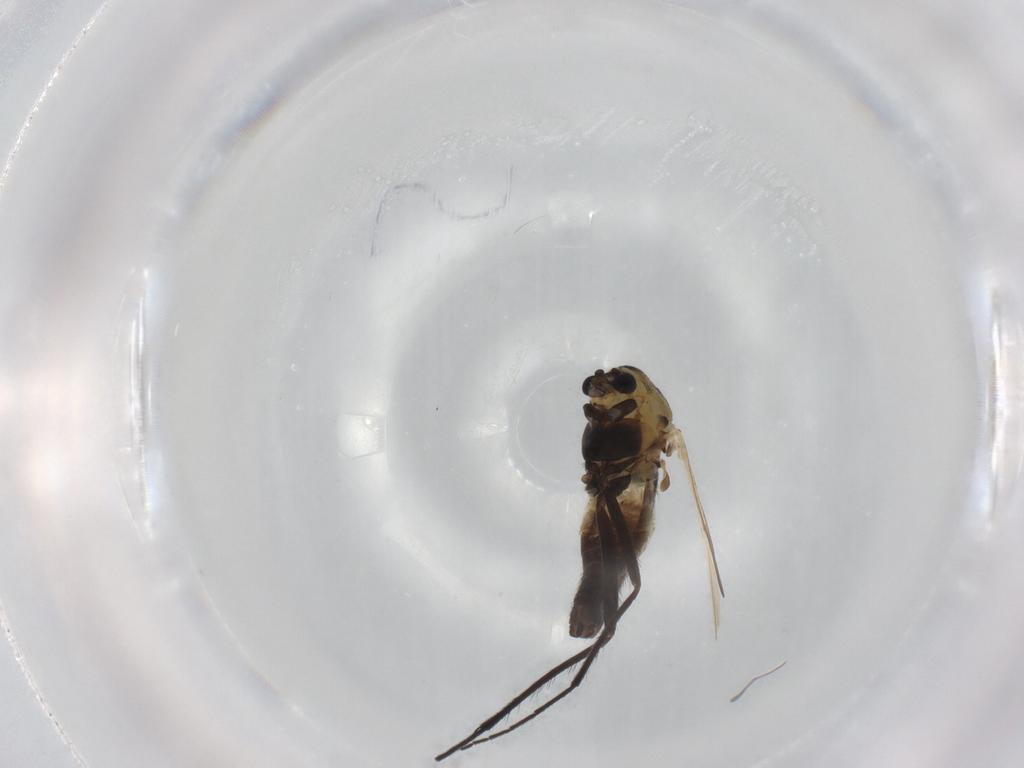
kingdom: Animalia
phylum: Arthropoda
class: Insecta
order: Diptera
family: Chironomidae
